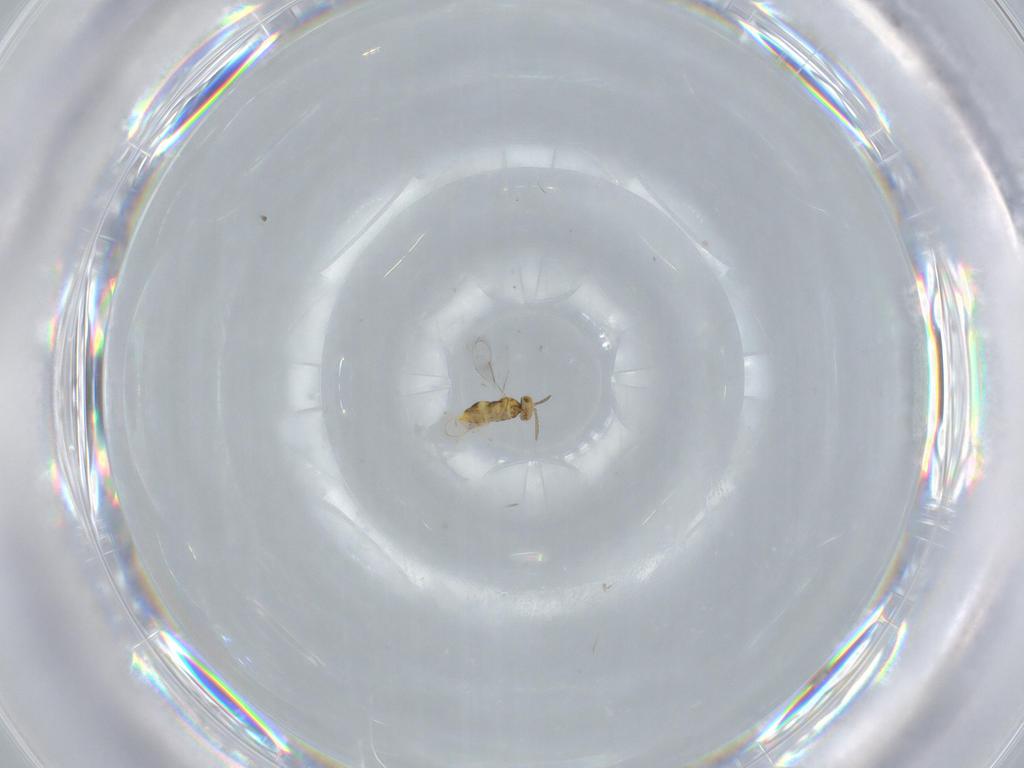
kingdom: Animalia
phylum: Arthropoda
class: Insecta
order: Hymenoptera
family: Aphelinidae
